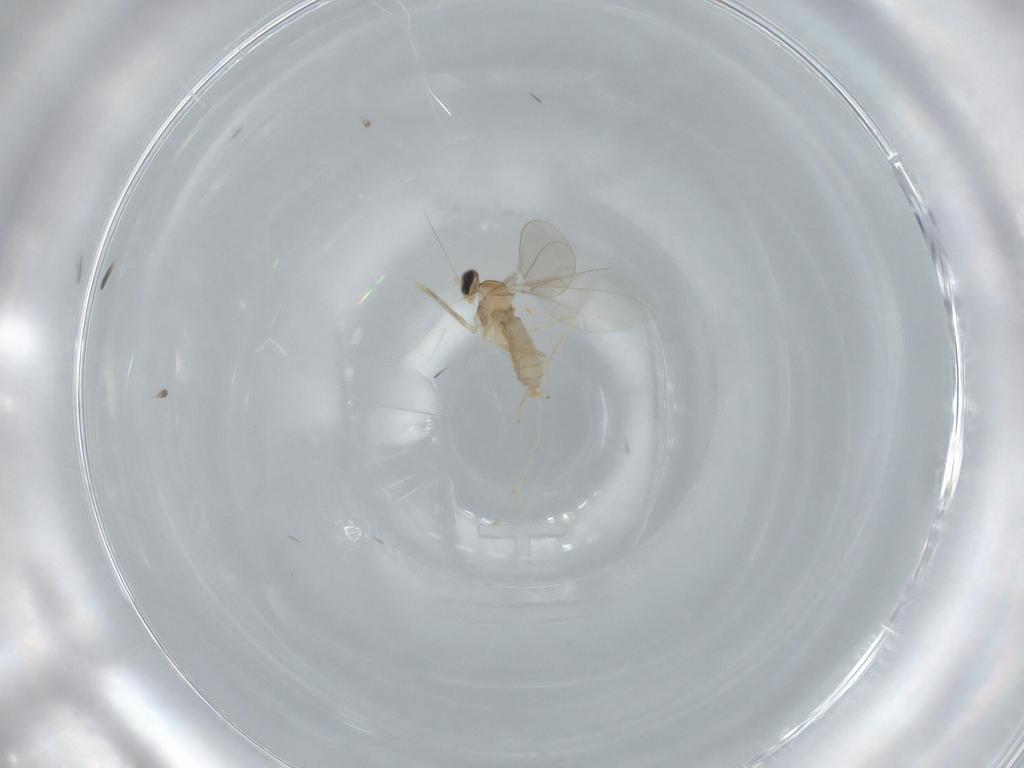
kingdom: Animalia
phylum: Arthropoda
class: Insecta
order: Diptera
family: Cecidomyiidae
